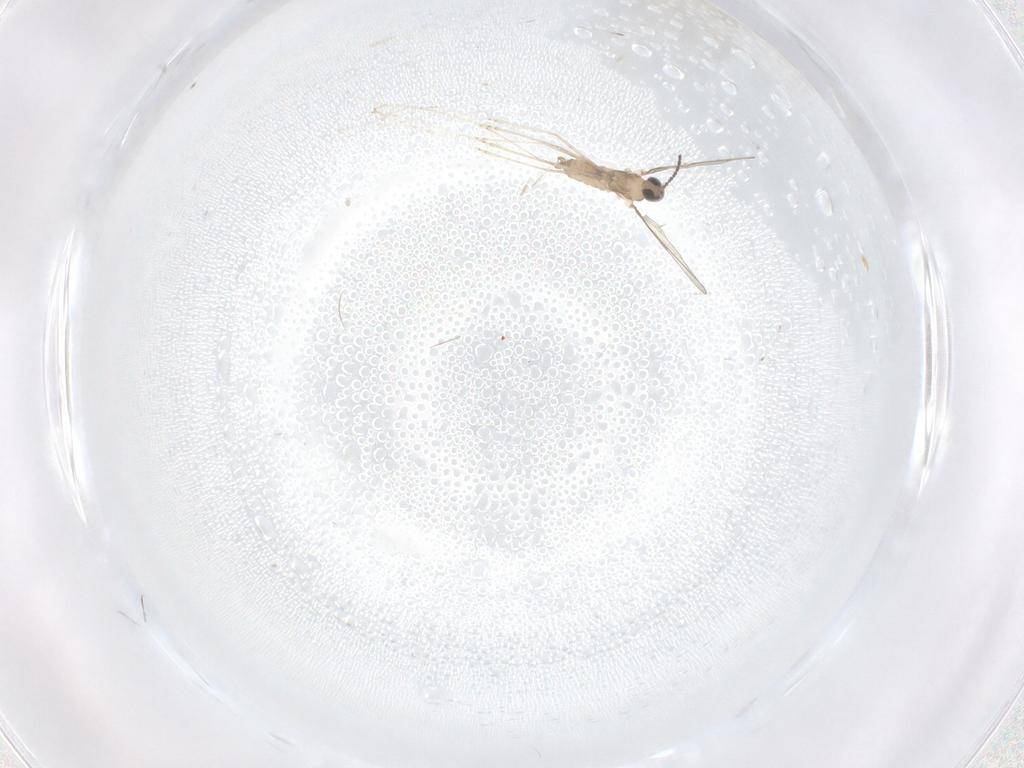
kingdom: Animalia
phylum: Arthropoda
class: Insecta
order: Diptera
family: Cecidomyiidae
